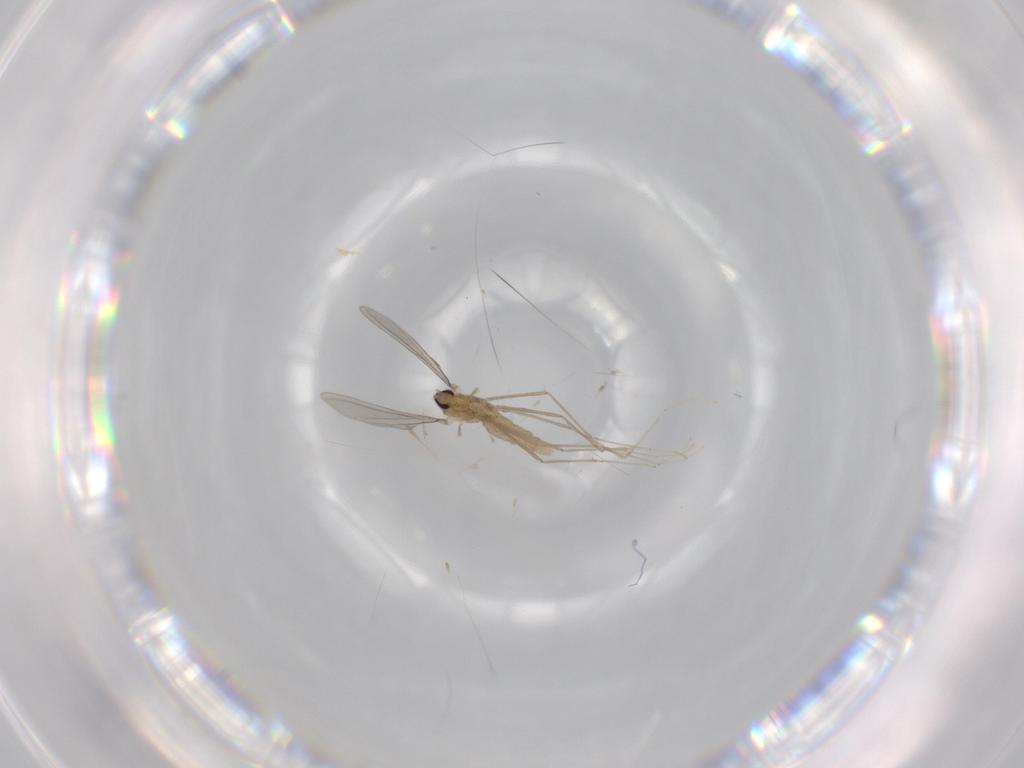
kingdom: Animalia
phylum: Arthropoda
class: Insecta
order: Diptera
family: Cecidomyiidae
